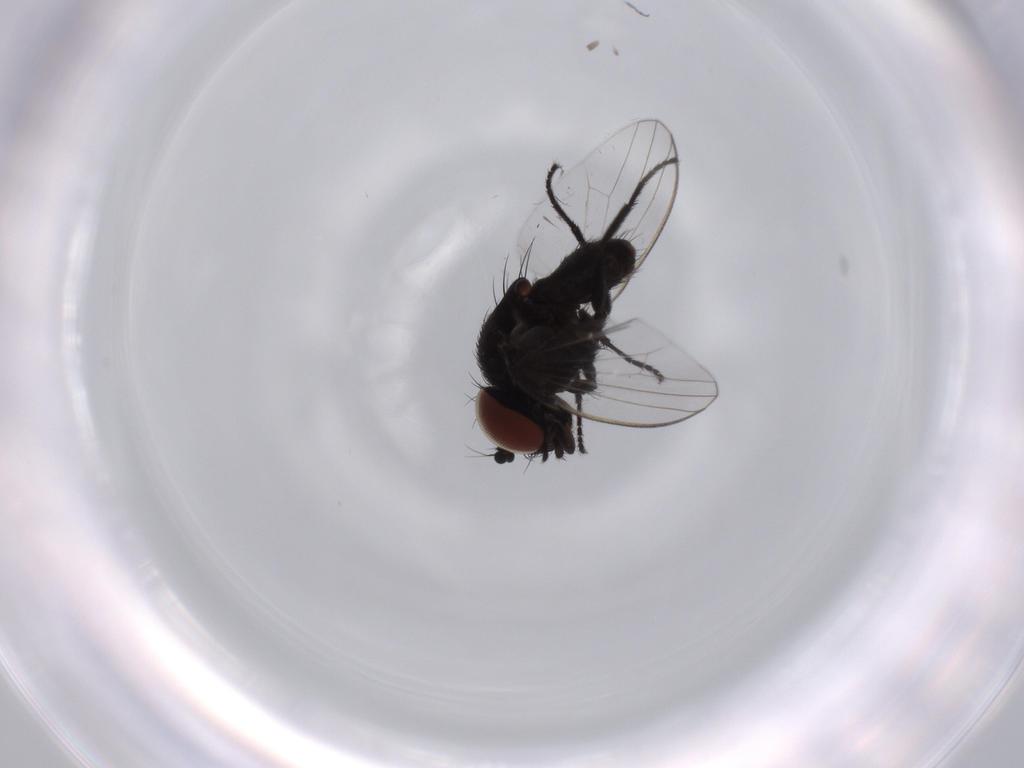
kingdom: Animalia
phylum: Arthropoda
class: Insecta
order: Diptera
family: Milichiidae
